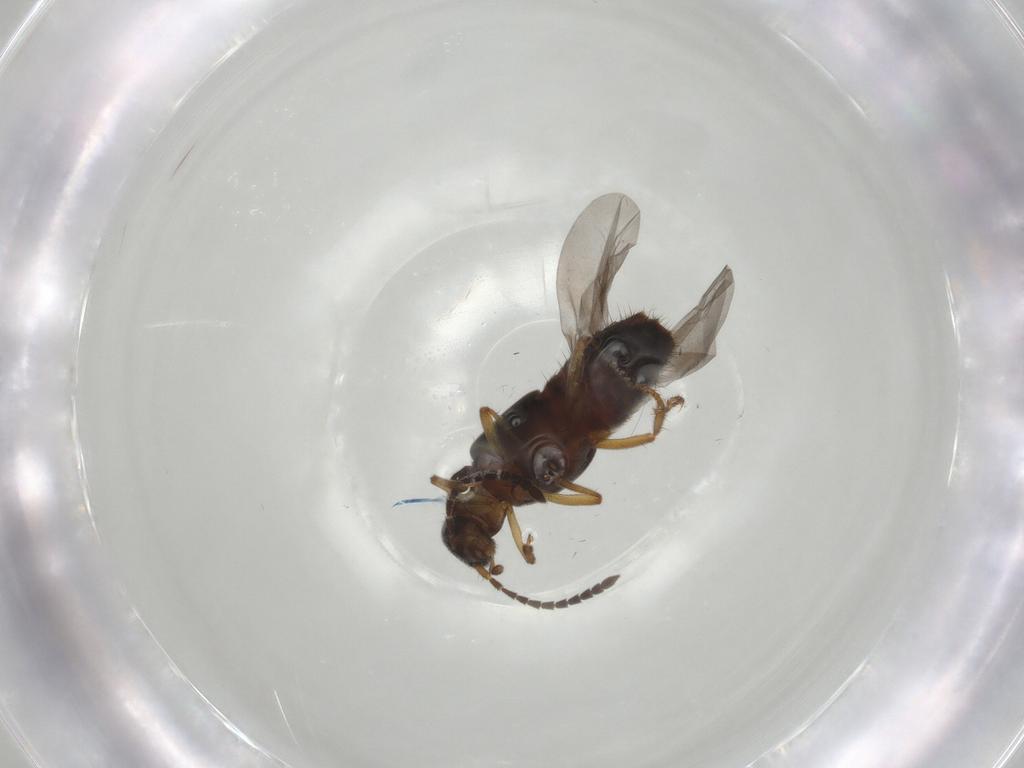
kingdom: Animalia
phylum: Arthropoda
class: Insecta
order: Coleoptera
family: Staphylinidae
